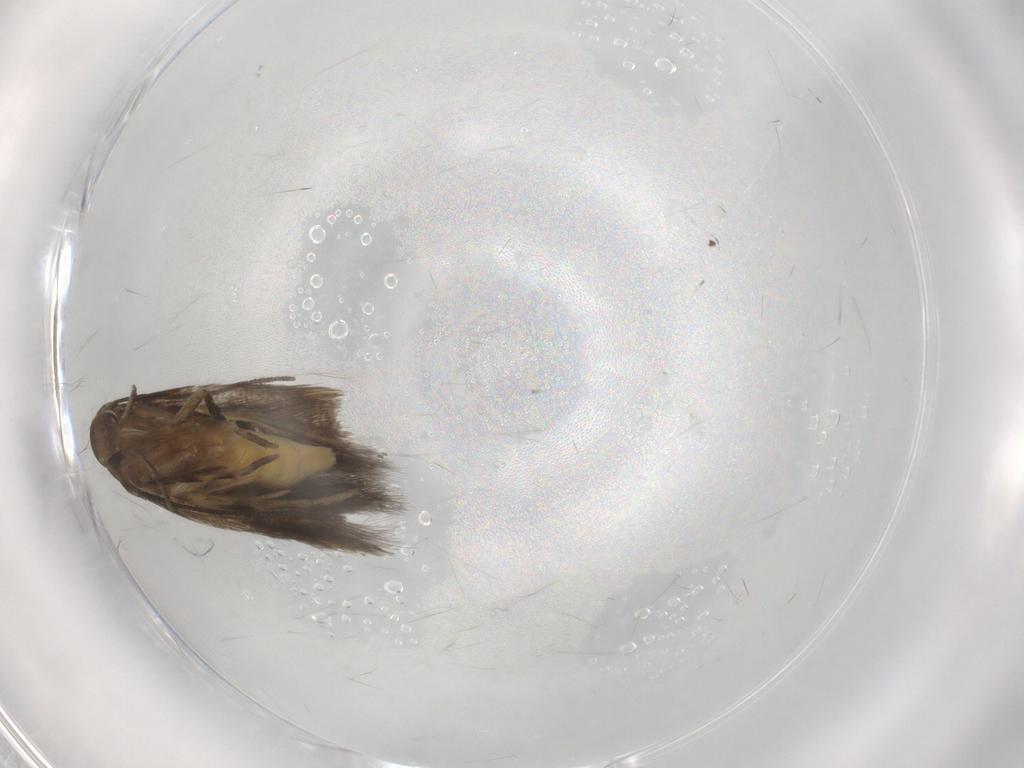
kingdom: Animalia
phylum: Arthropoda
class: Insecta
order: Lepidoptera
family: Elachistidae
